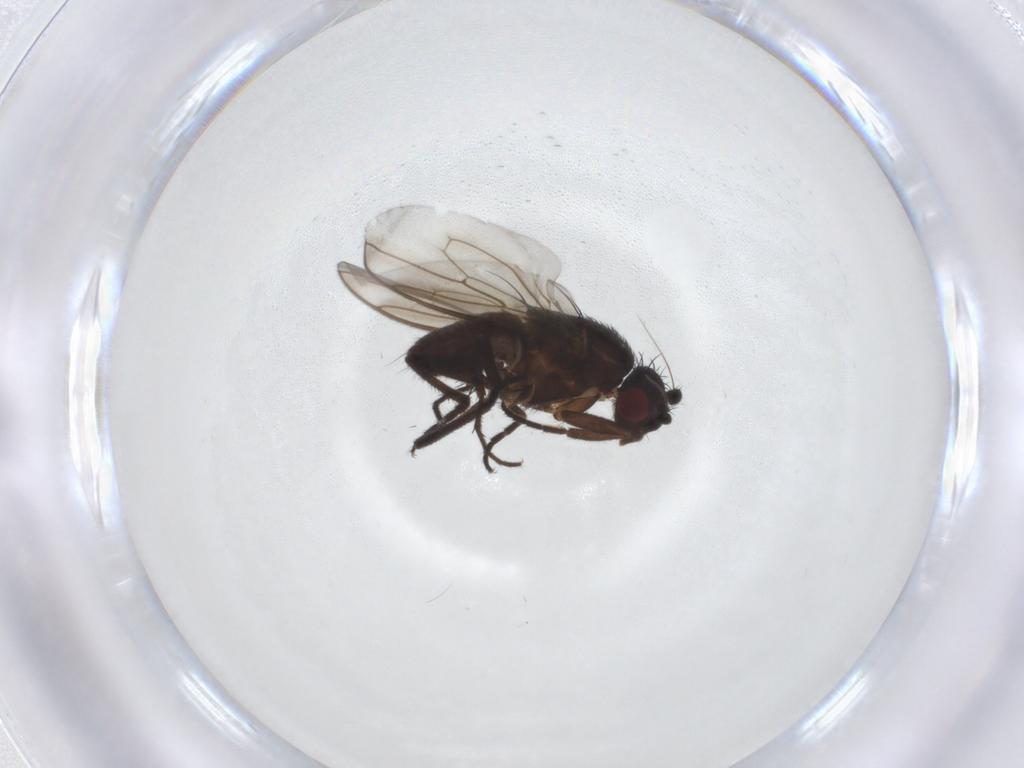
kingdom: Animalia
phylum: Arthropoda
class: Insecta
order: Diptera
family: Sphaeroceridae
